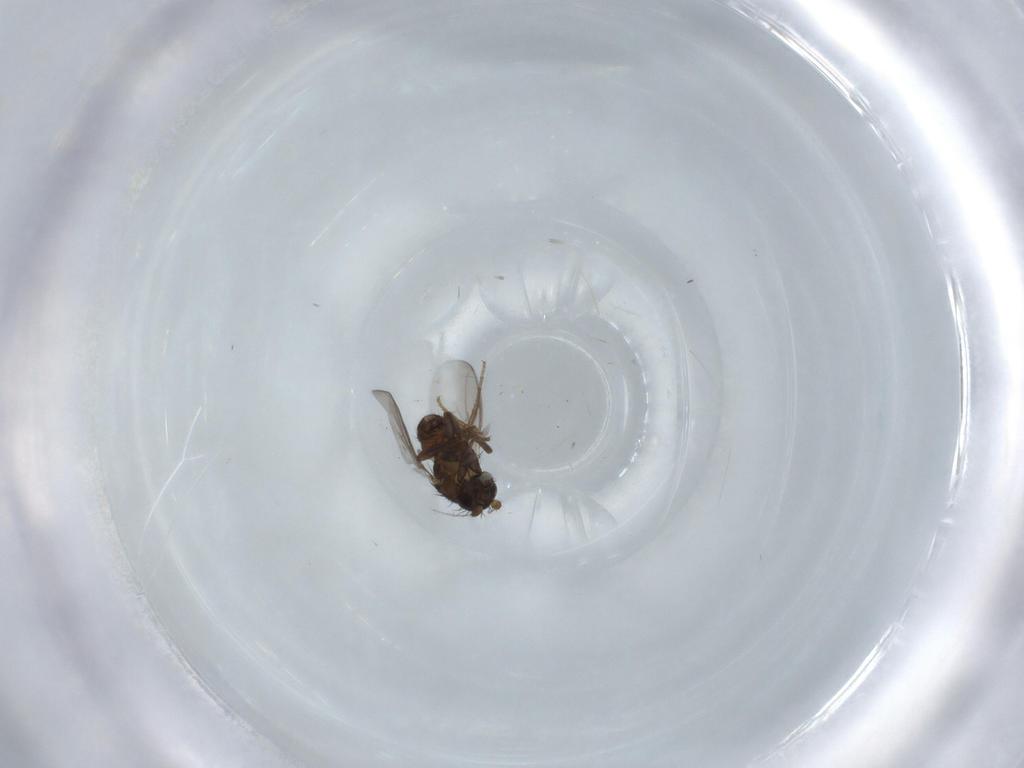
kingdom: Animalia
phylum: Arthropoda
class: Insecta
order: Diptera
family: Sphaeroceridae
